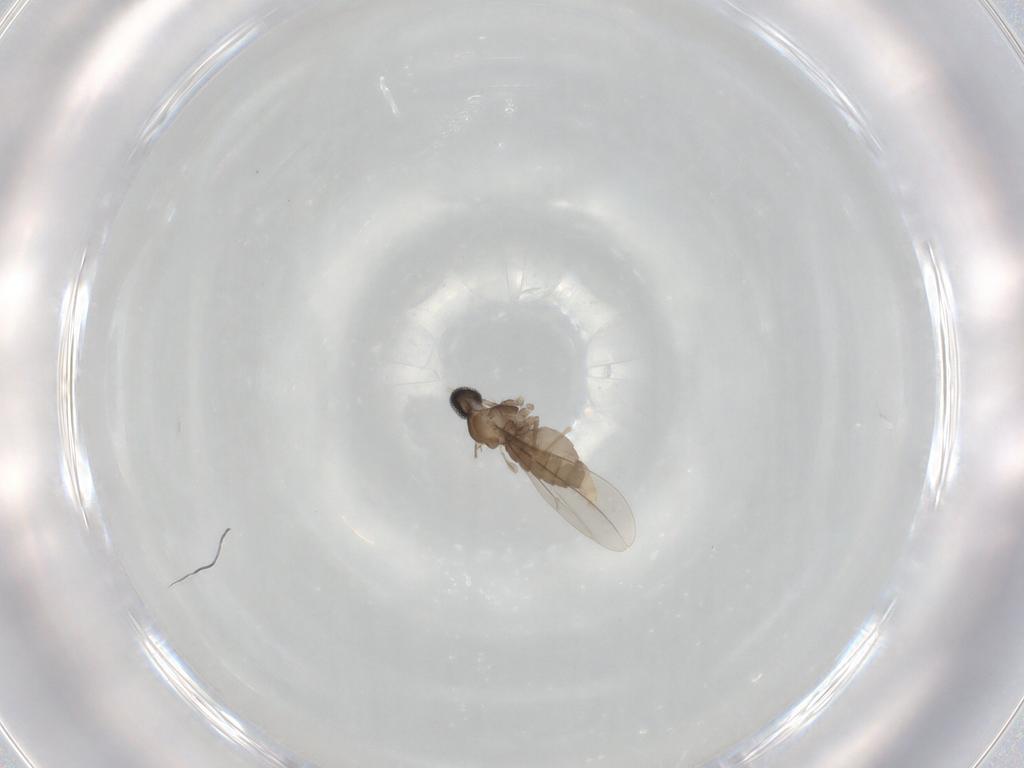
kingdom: Animalia
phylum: Arthropoda
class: Insecta
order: Diptera
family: Cecidomyiidae
